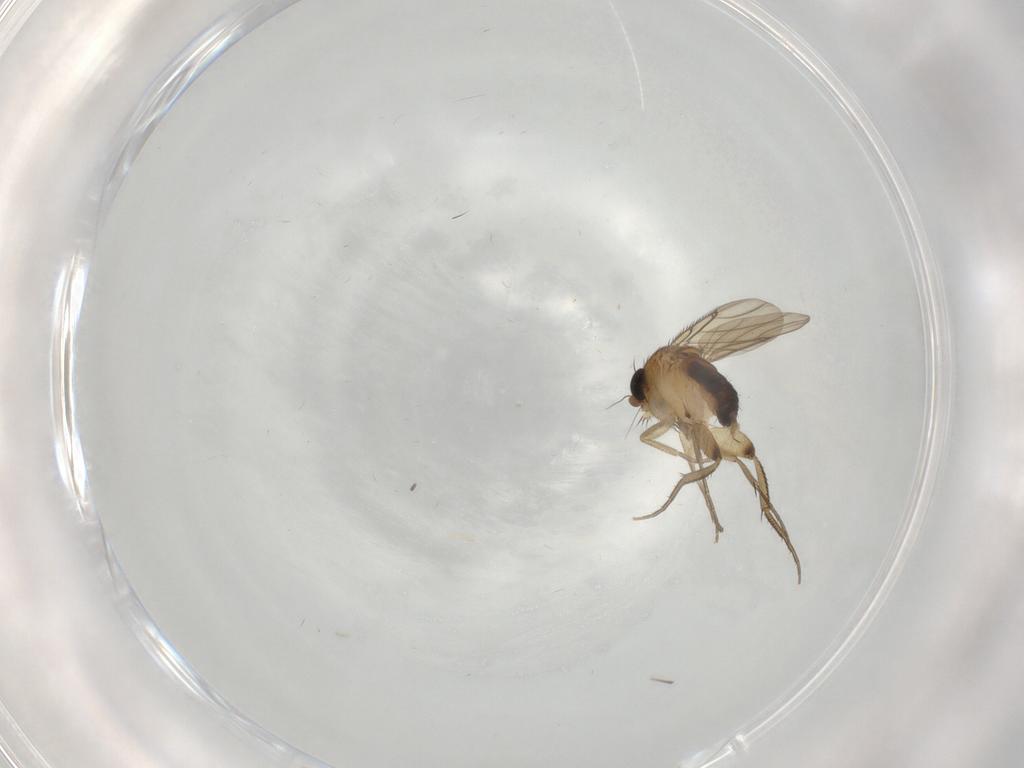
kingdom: Animalia
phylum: Arthropoda
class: Insecta
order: Diptera
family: Phoridae
